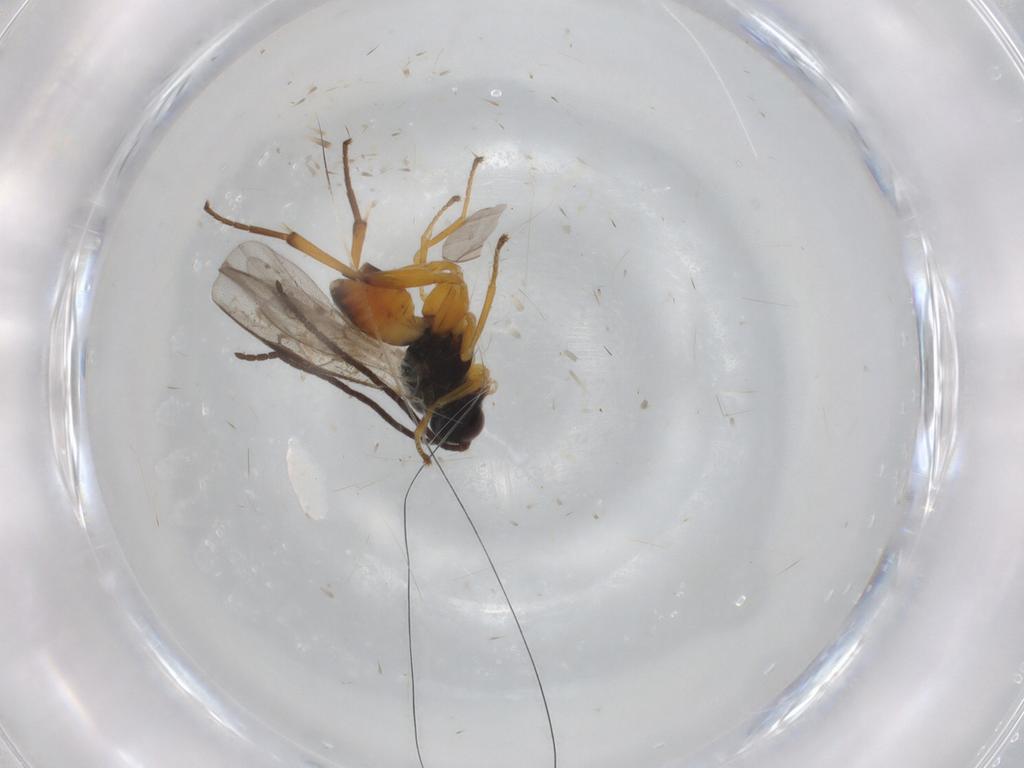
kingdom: Animalia
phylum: Arthropoda
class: Insecta
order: Hymenoptera
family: Braconidae
